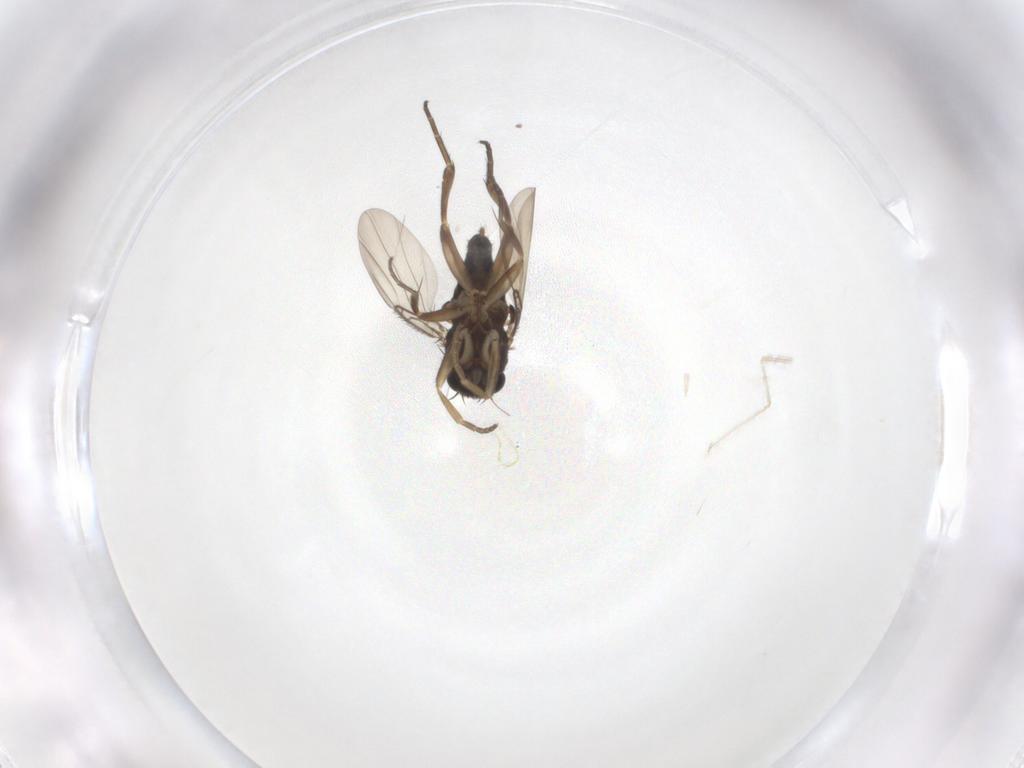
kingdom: Animalia
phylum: Arthropoda
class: Insecta
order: Diptera
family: Phoridae
